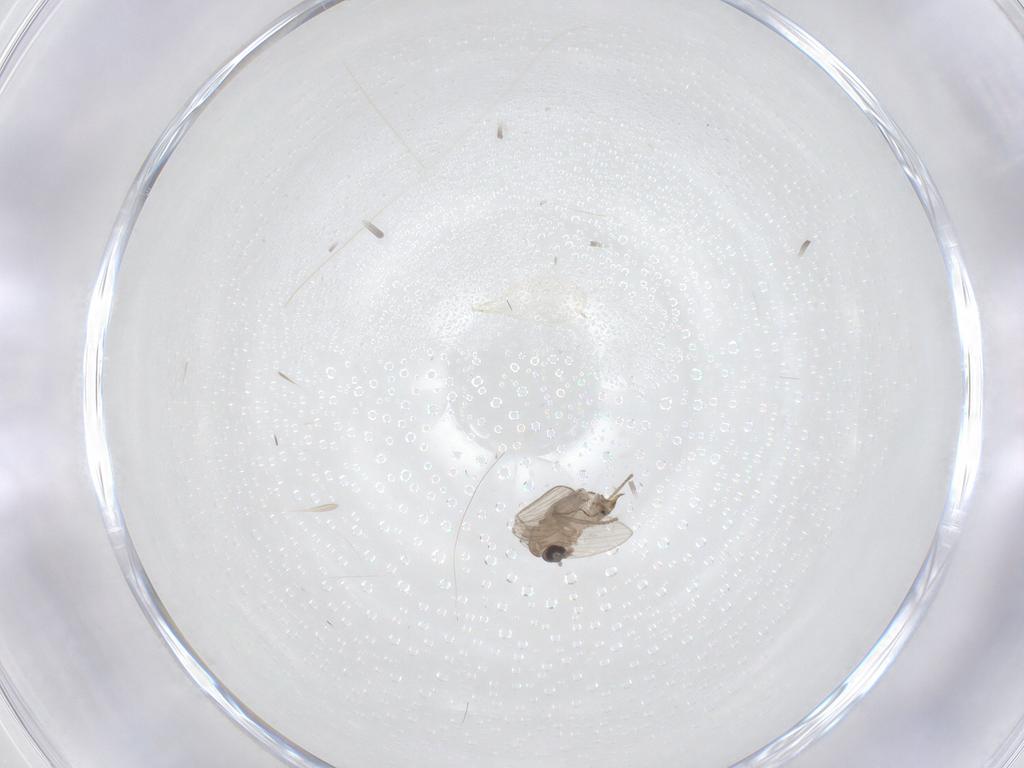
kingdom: Animalia
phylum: Arthropoda
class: Insecta
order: Diptera
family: Psychodidae
